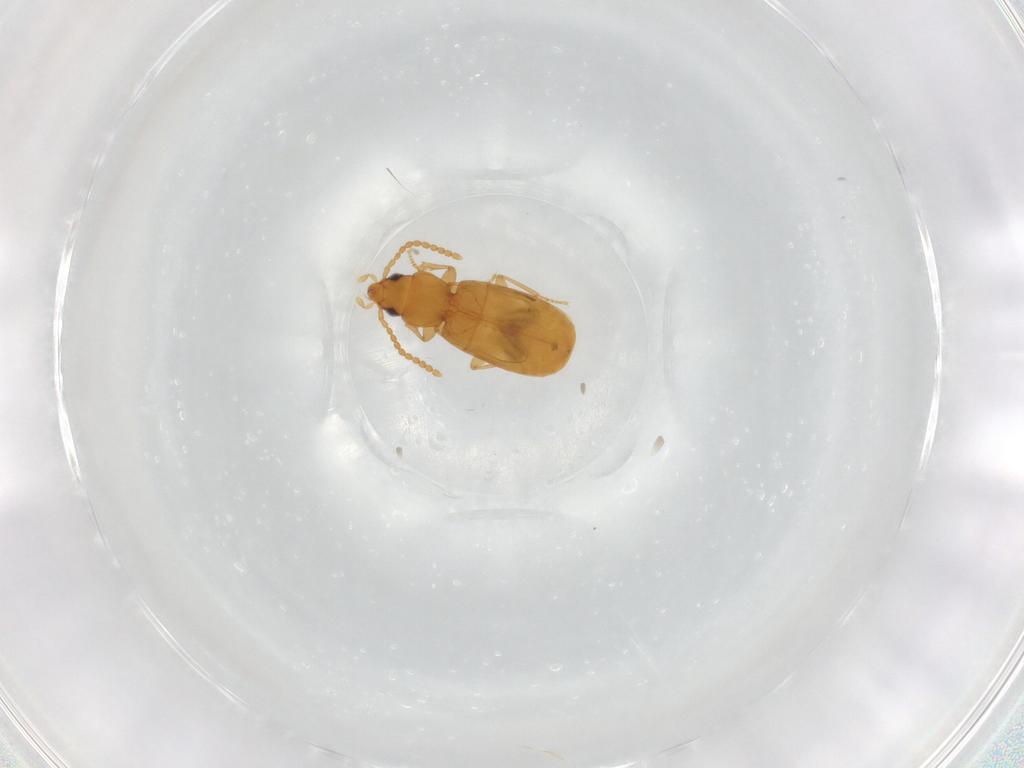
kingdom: Animalia
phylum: Arthropoda
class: Insecta
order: Coleoptera
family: Carabidae
